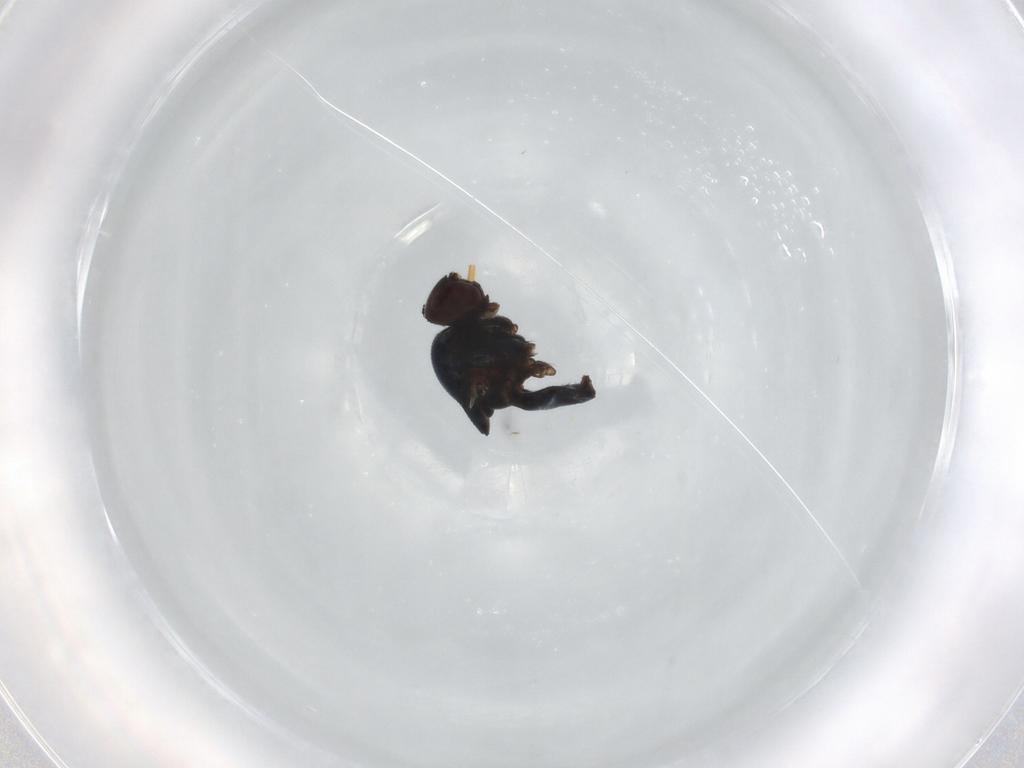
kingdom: Animalia
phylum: Arthropoda
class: Insecta
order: Diptera
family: Chloropidae
